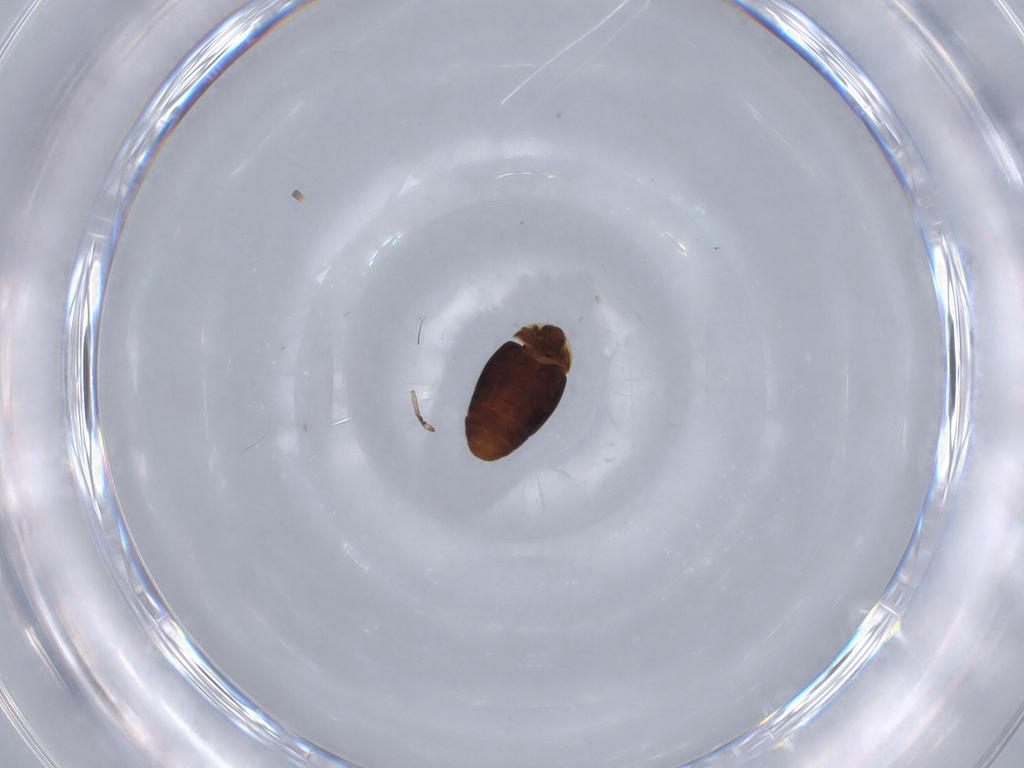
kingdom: Animalia
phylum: Arthropoda
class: Insecta
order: Coleoptera
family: Corylophidae
